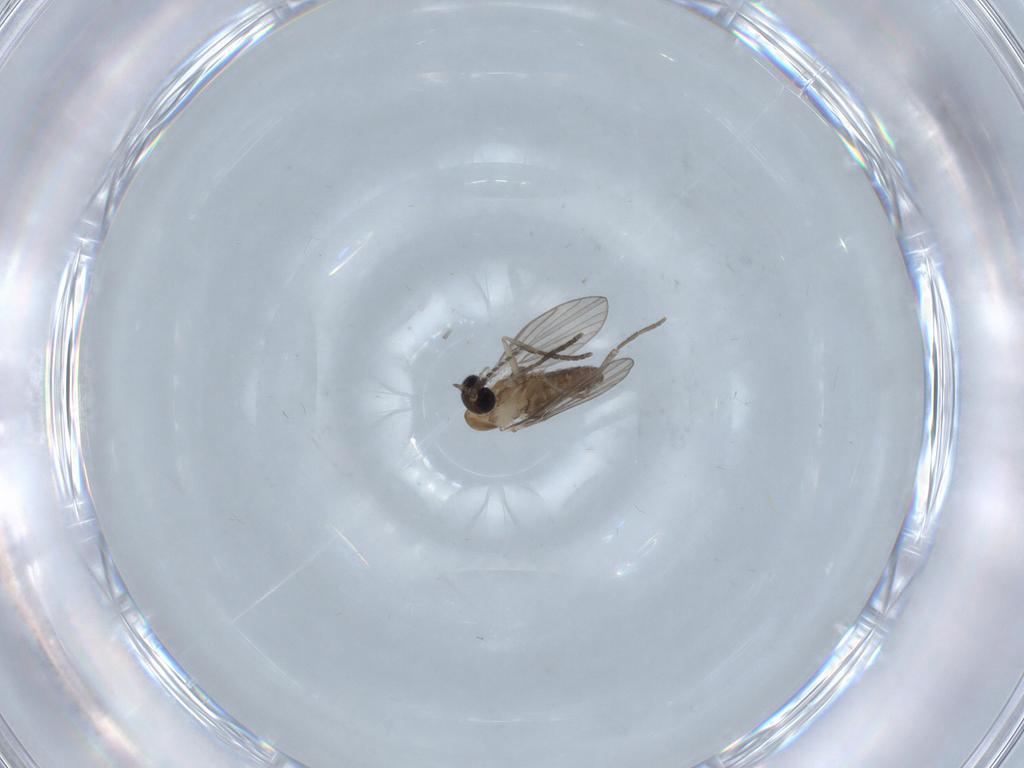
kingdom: Animalia
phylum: Arthropoda
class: Insecta
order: Diptera
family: Psychodidae
